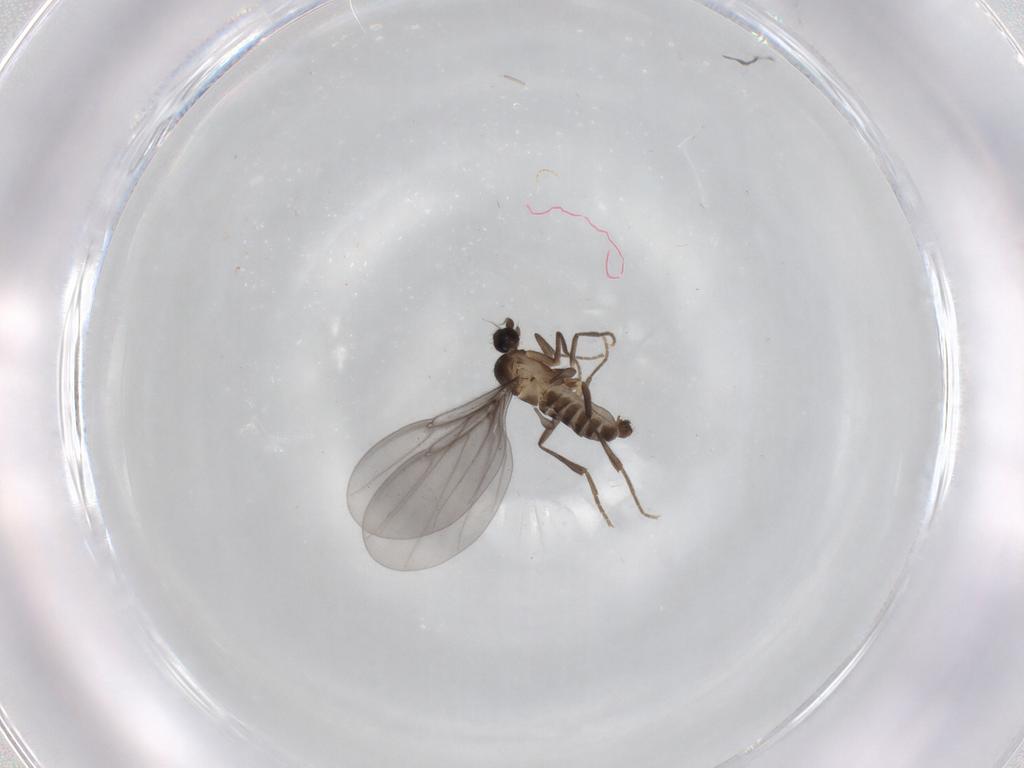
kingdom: Animalia
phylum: Arthropoda
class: Insecta
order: Diptera
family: Phoridae
